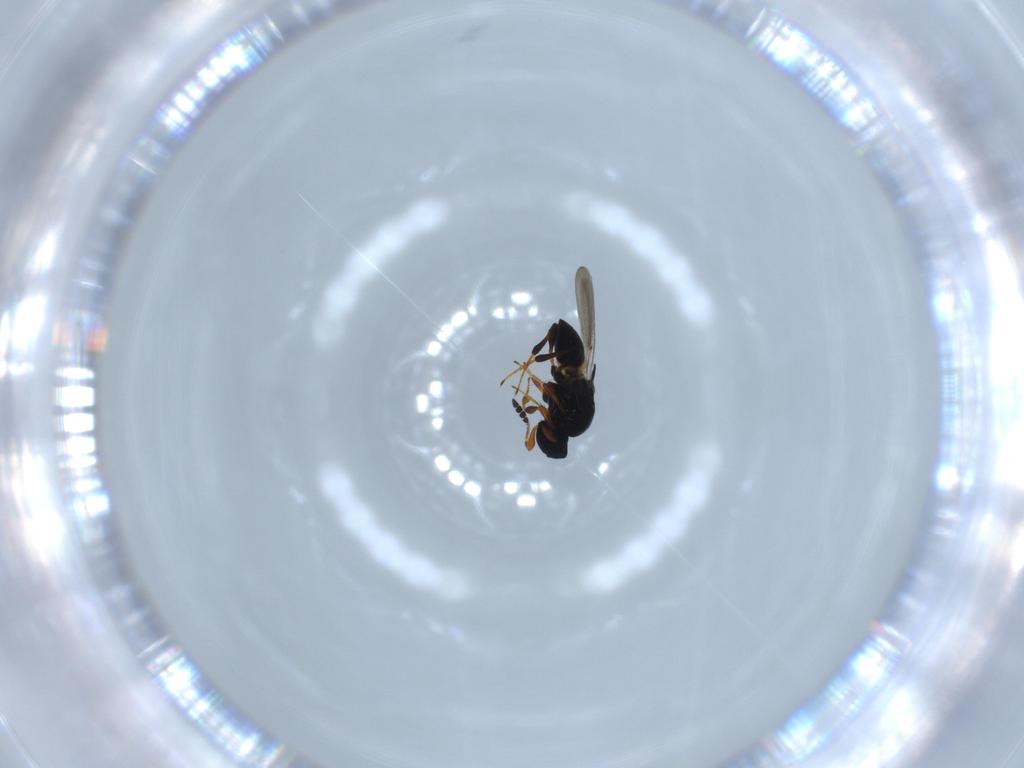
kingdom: Animalia
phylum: Arthropoda
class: Insecta
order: Hymenoptera
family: Platygastridae
